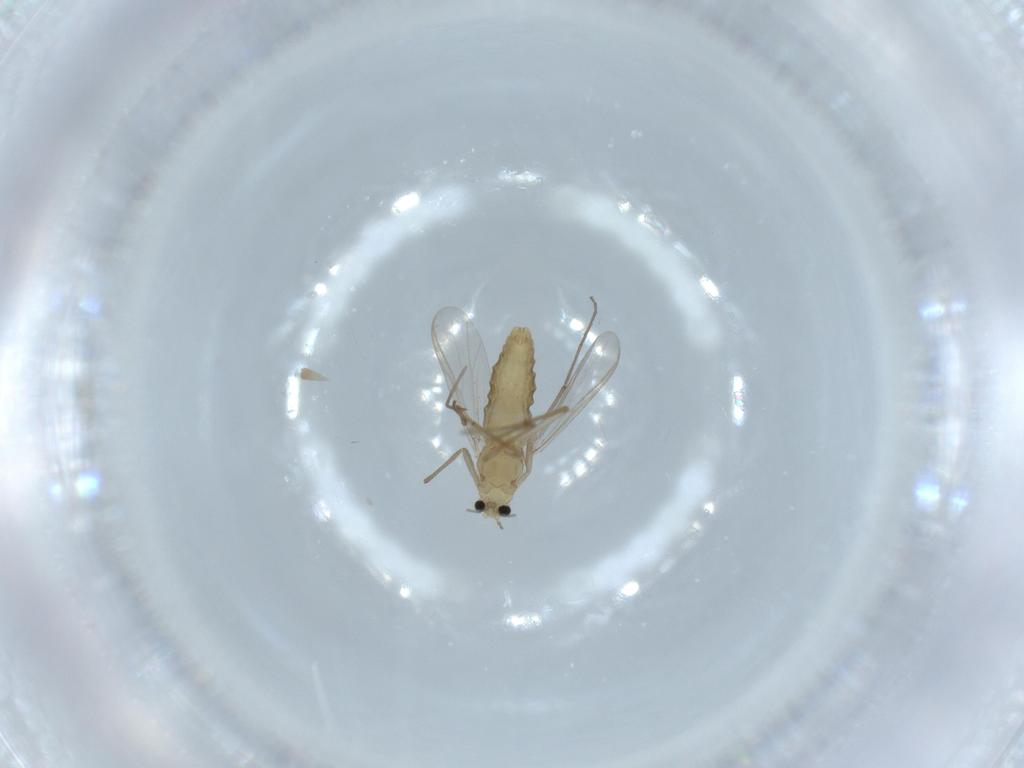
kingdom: Animalia
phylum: Arthropoda
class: Insecta
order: Diptera
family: Chironomidae
